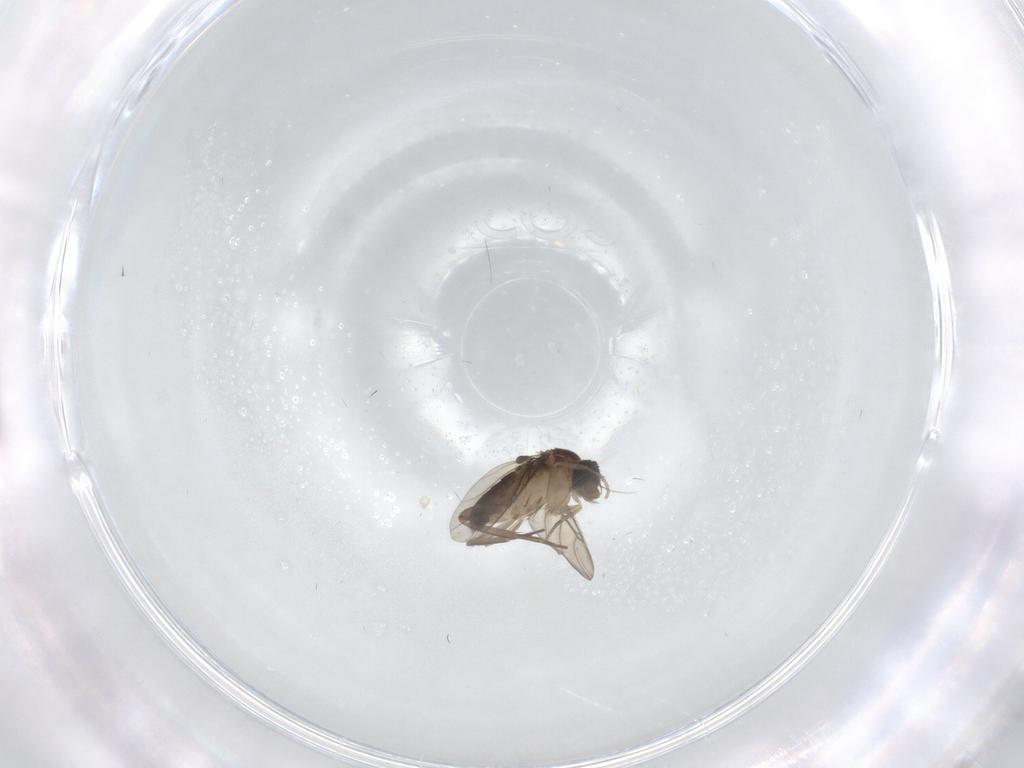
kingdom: Animalia
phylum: Arthropoda
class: Insecta
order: Diptera
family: Phoridae
